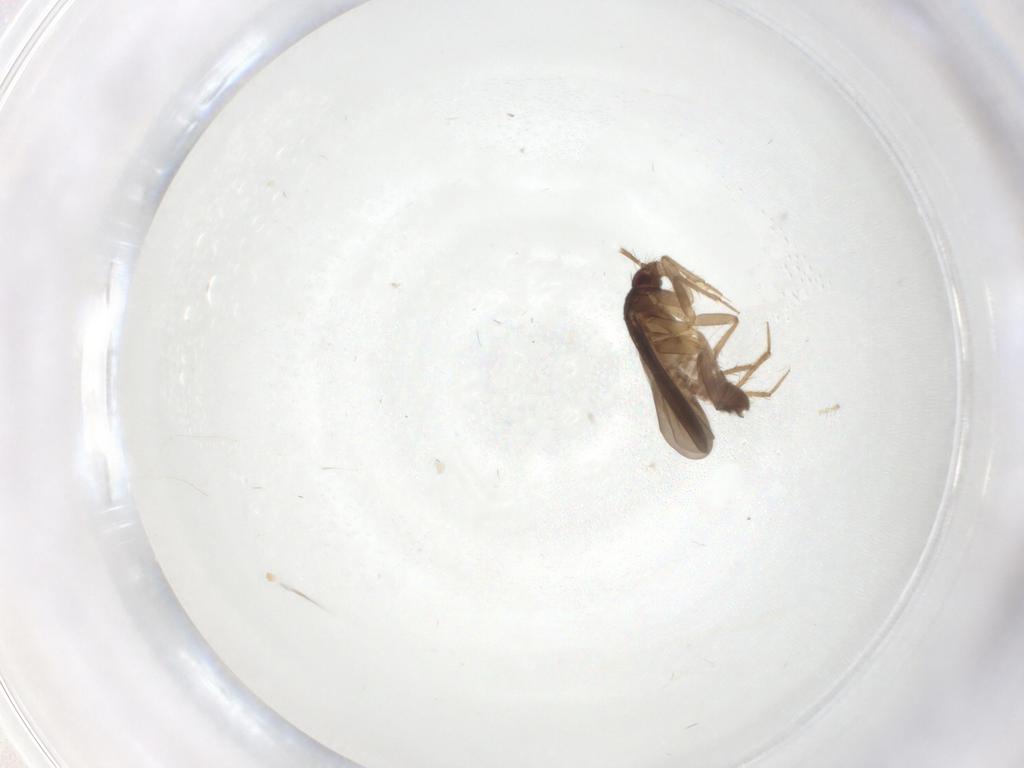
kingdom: Animalia
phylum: Arthropoda
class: Insecta
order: Hemiptera
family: Ceratocombidae
